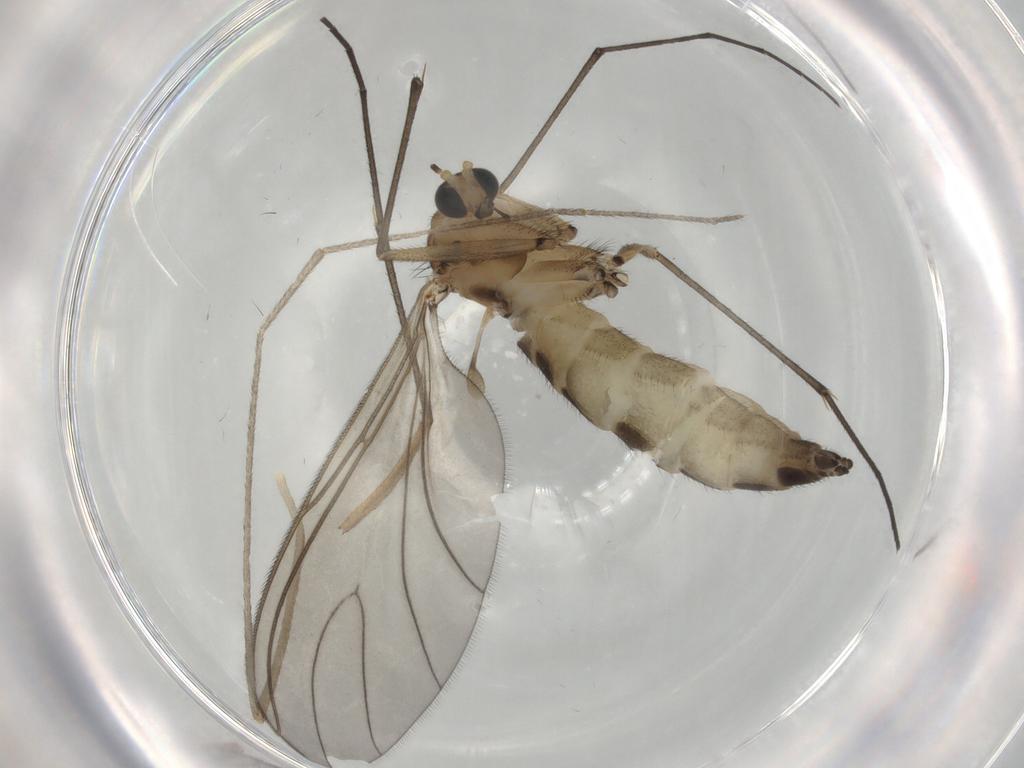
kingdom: Animalia
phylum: Arthropoda
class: Insecta
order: Diptera
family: Sciaridae
